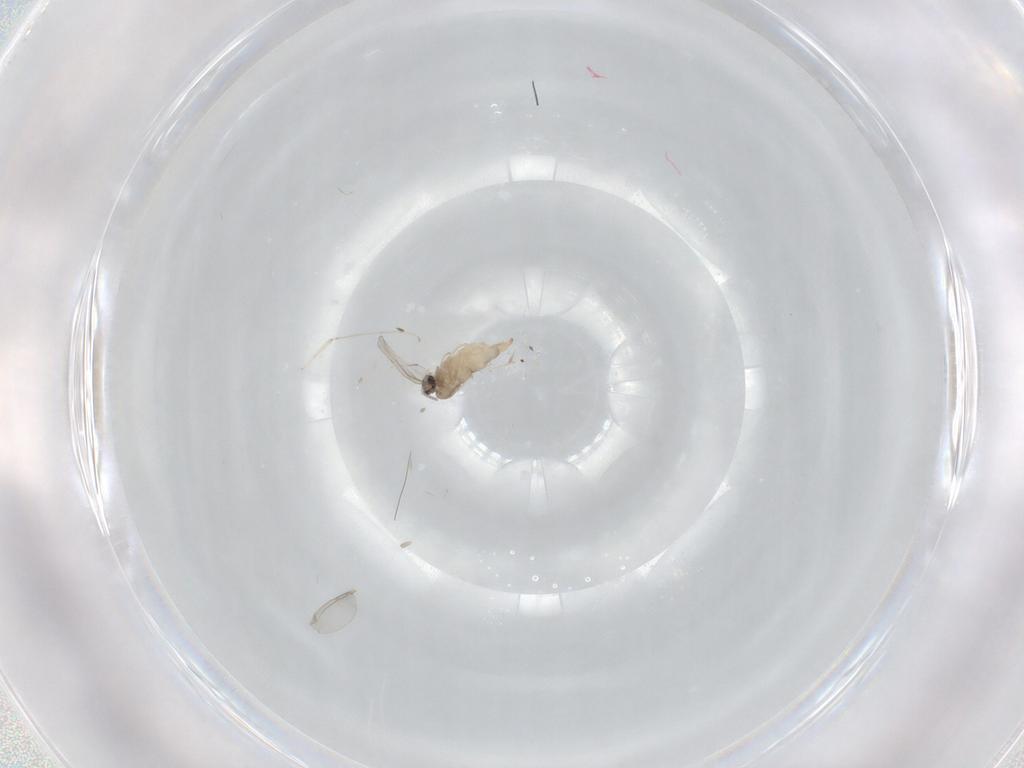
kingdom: Animalia
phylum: Arthropoda
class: Insecta
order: Diptera
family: Cecidomyiidae
